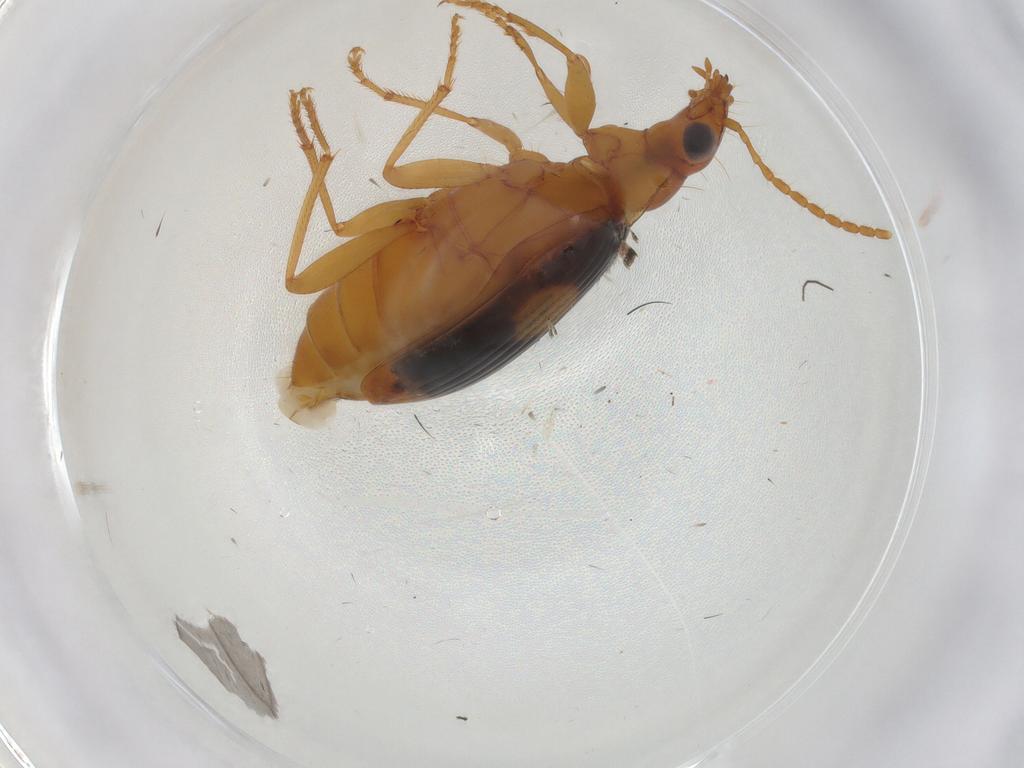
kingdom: Animalia
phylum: Arthropoda
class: Insecta
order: Coleoptera
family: Carabidae
